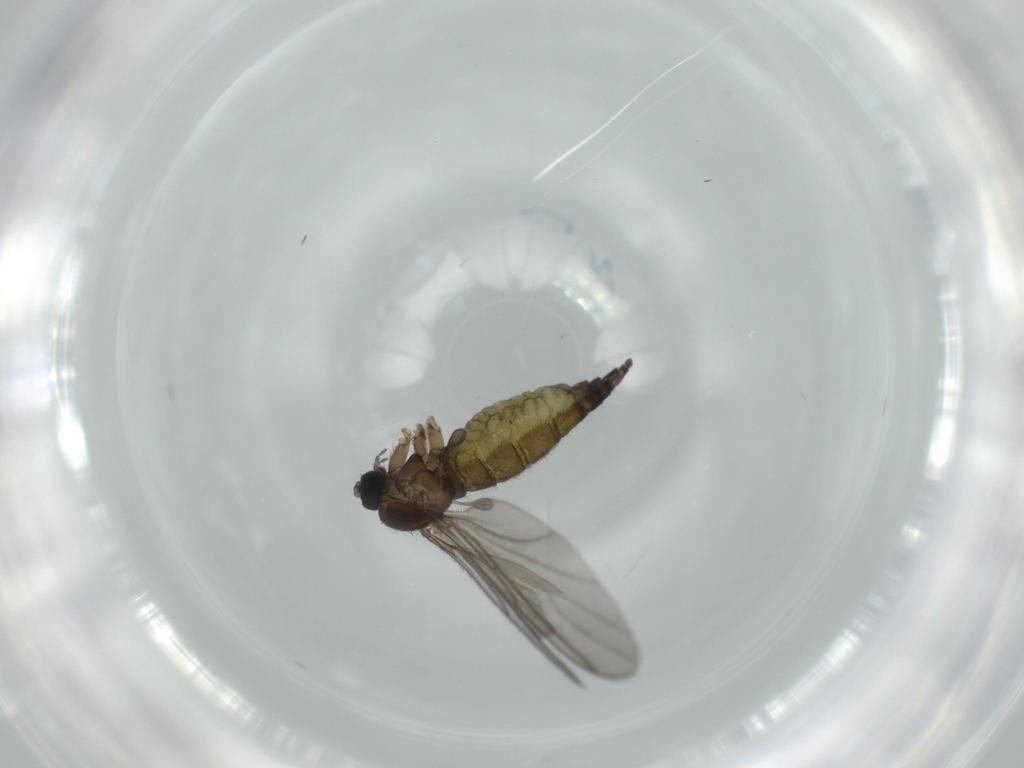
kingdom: Animalia
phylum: Arthropoda
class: Insecta
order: Diptera
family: Sciaridae
